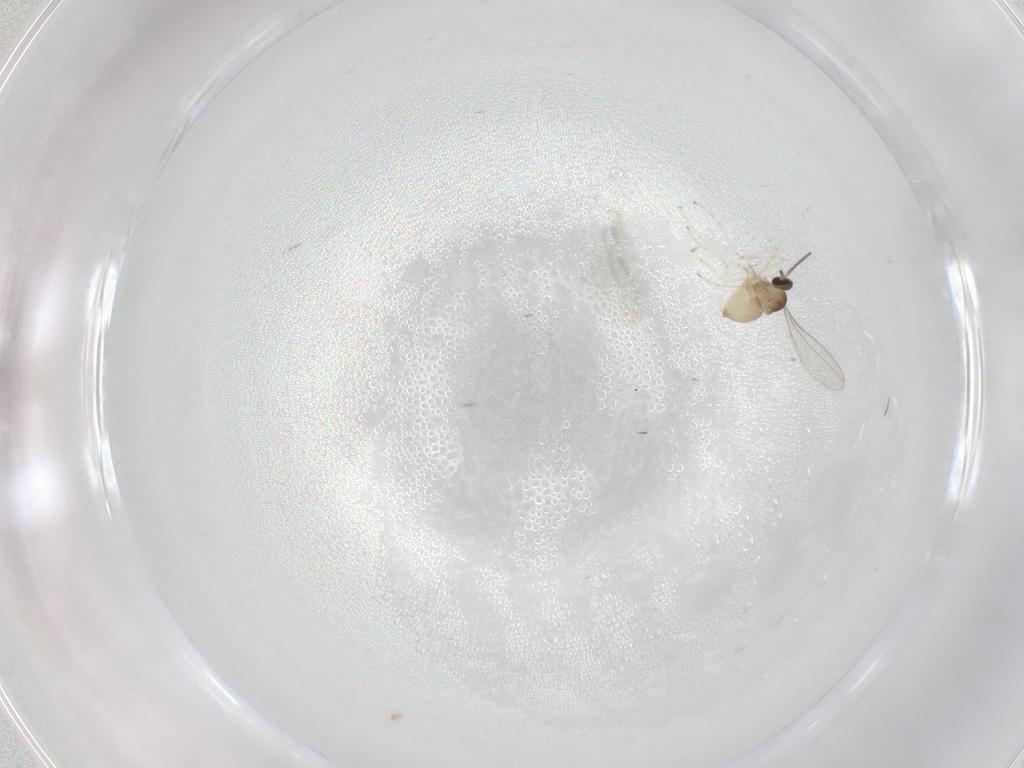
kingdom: Animalia
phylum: Arthropoda
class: Insecta
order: Diptera
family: Cecidomyiidae
